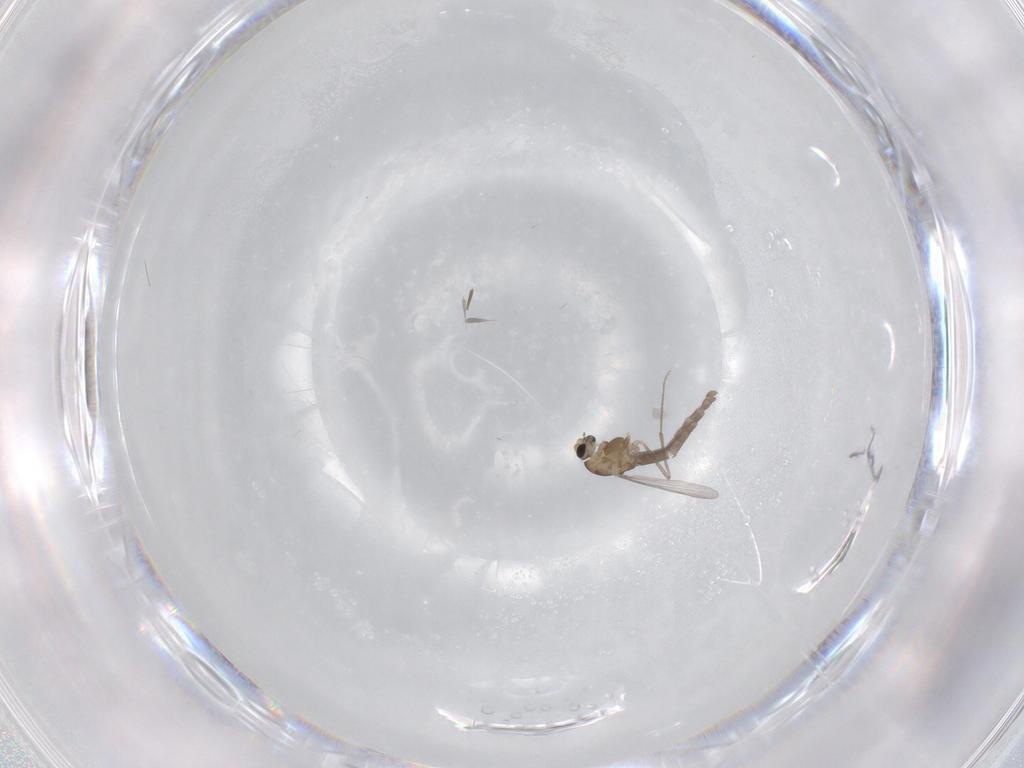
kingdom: Animalia
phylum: Arthropoda
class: Insecta
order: Diptera
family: Chironomidae
